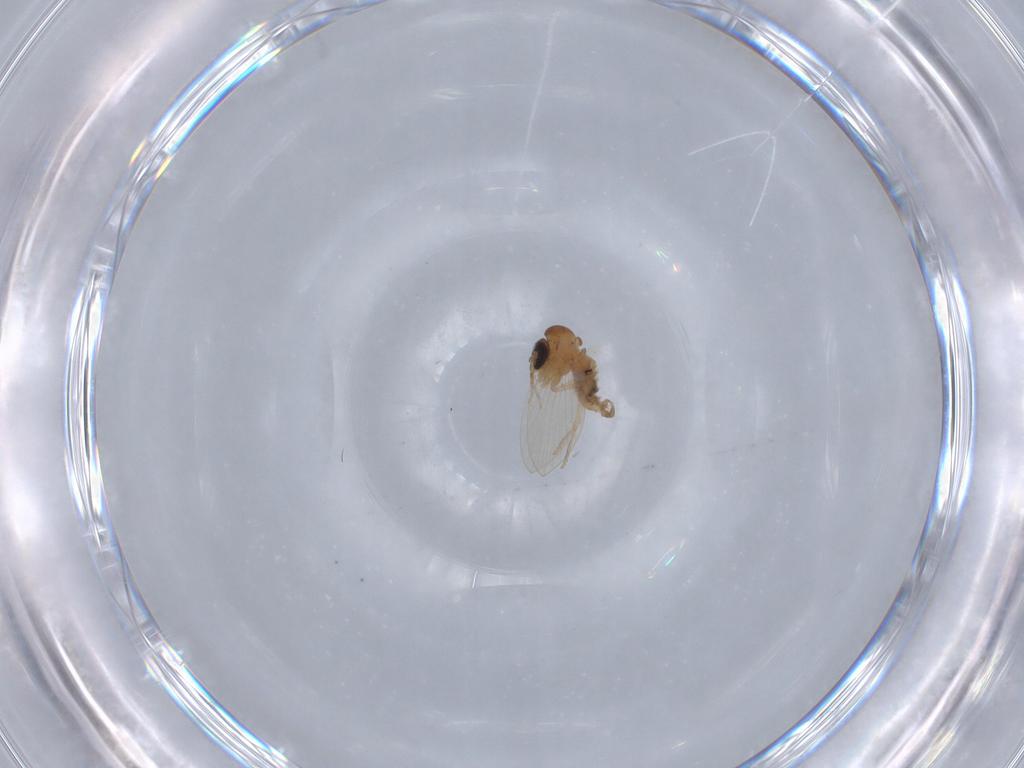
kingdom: Animalia
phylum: Arthropoda
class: Insecta
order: Diptera
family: Psychodidae
